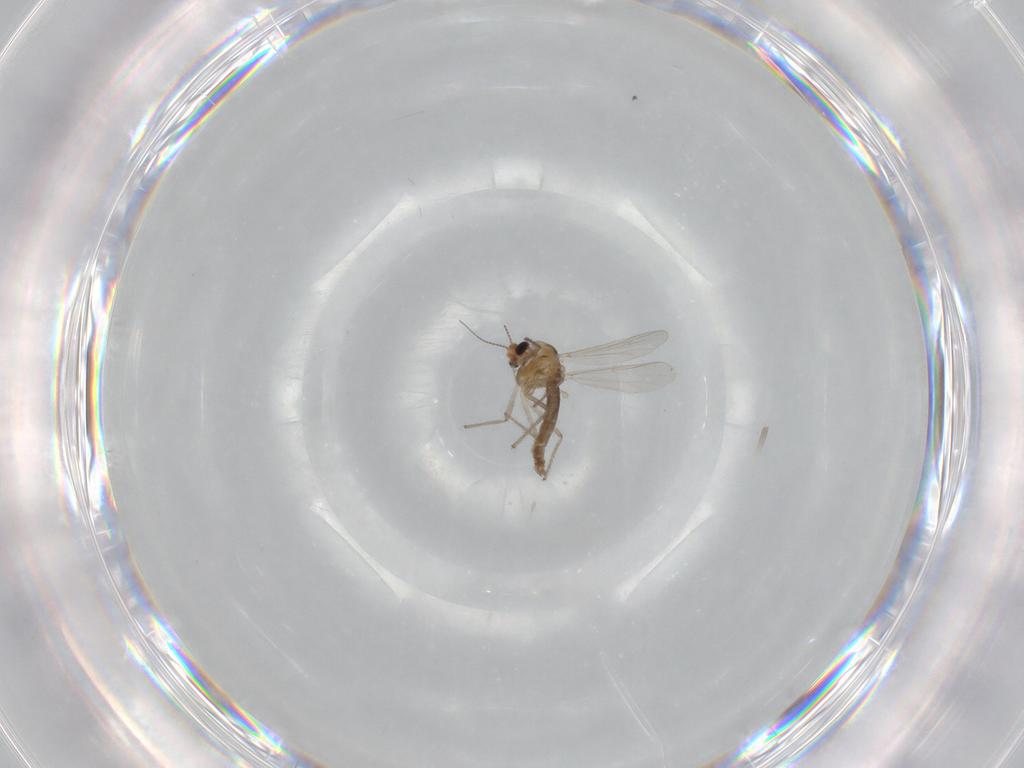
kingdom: Animalia
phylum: Arthropoda
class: Insecta
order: Diptera
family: Chironomidae
